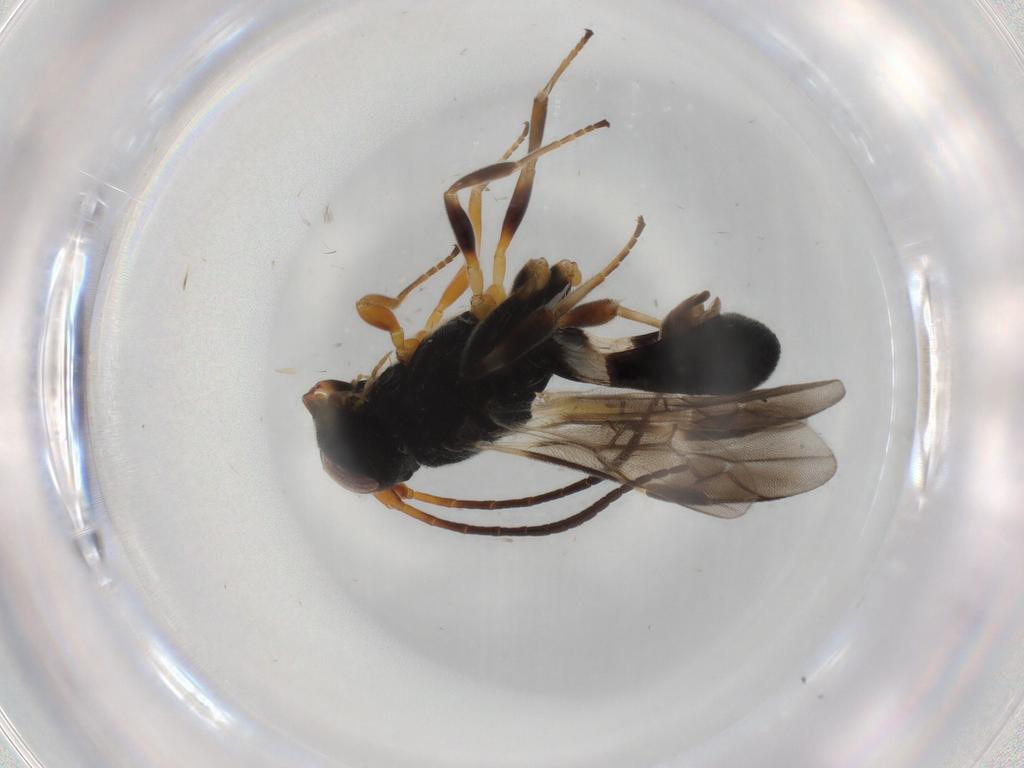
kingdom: Animalia
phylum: Arthropoda
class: Insecta
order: Hymenoptera
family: Braconidae
